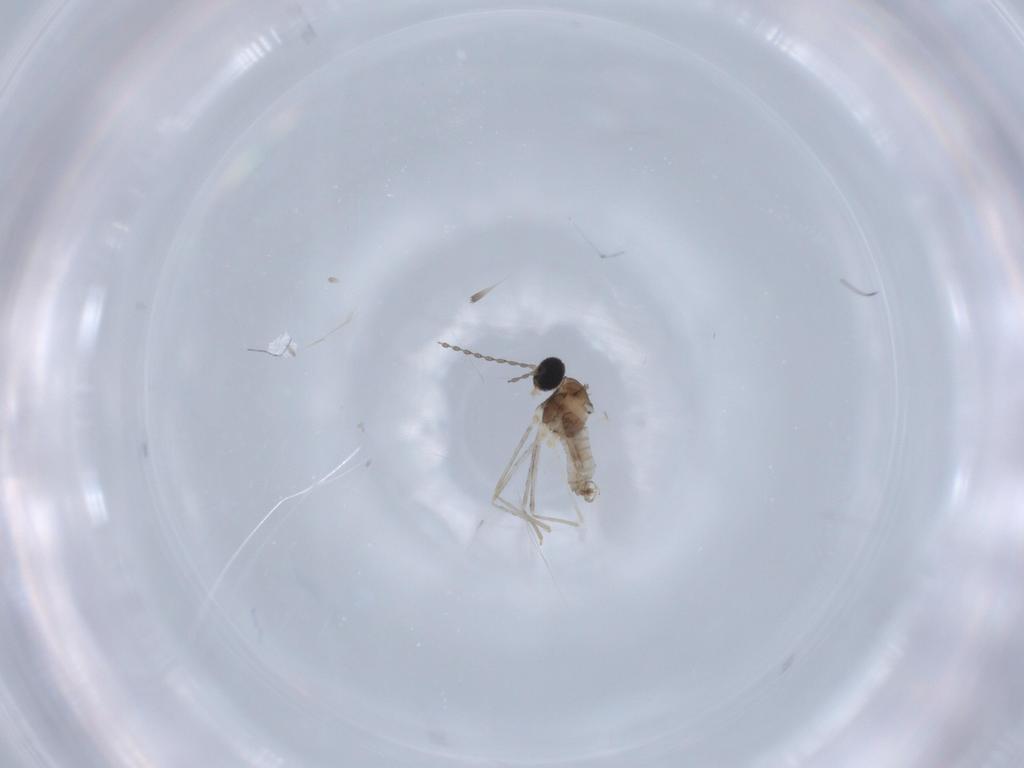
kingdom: Animalia
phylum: Arthropoda
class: Insecta
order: Diptera
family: Cecidomyiidae
